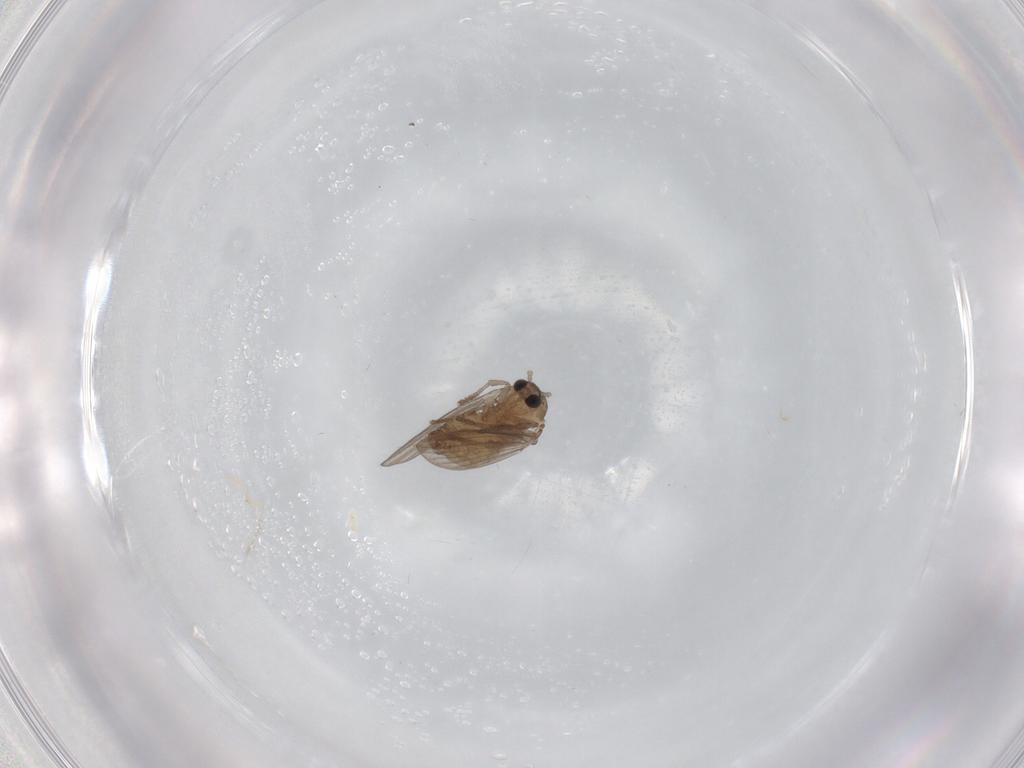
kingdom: Animalia
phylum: Arthropoda
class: Insecta
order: Diptera
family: Psychodidae
